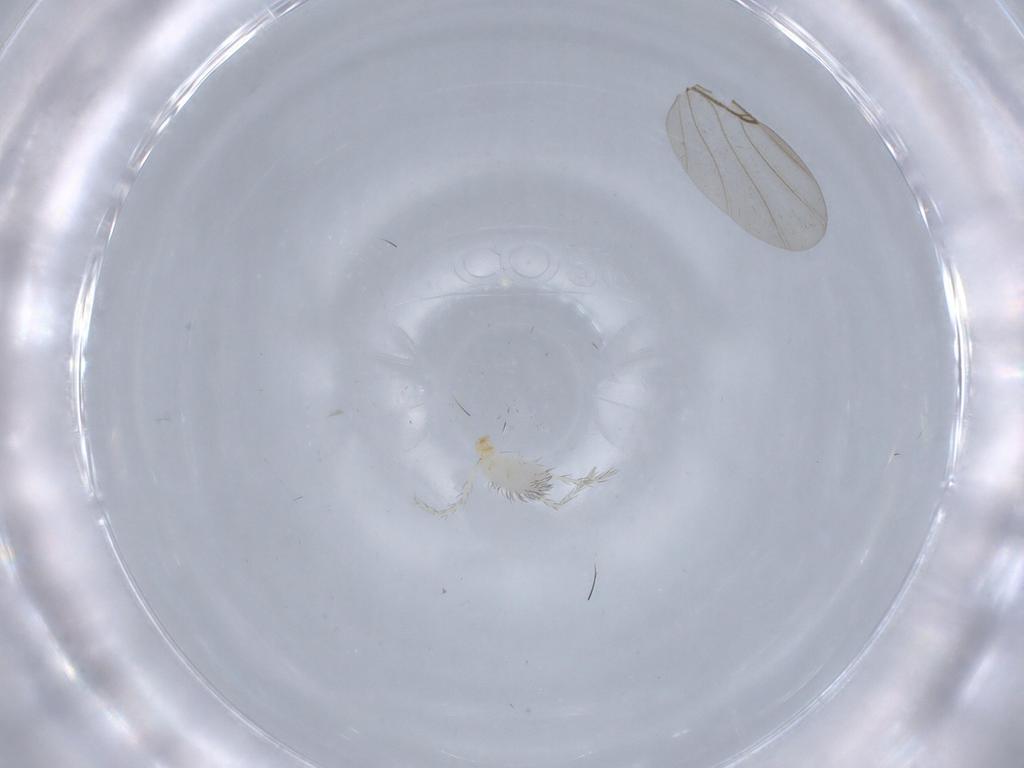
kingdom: Animalia
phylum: Arthropoda
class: Arachnida
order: Trombidiformes
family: Erythraeidae
